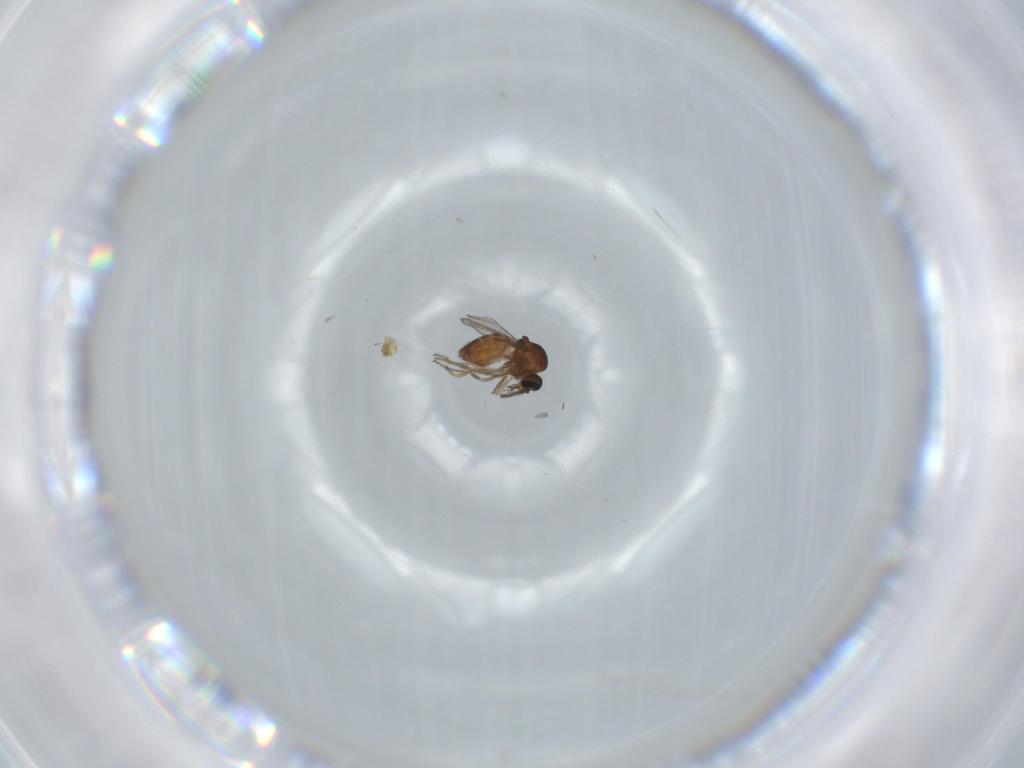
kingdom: Animalia
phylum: Arthropoda
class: Insecta
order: Diptera
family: Ceratopogonidae
